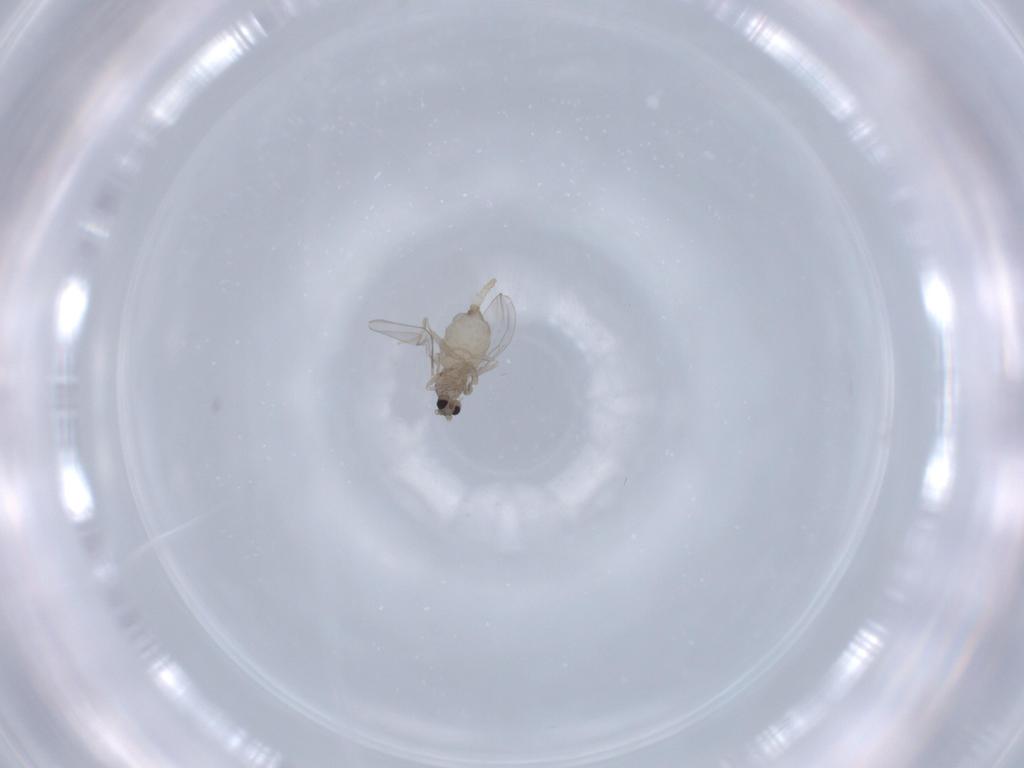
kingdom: Animalia
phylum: Arthropoda
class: Insecta
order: Diptera
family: Cecidomyiidae
